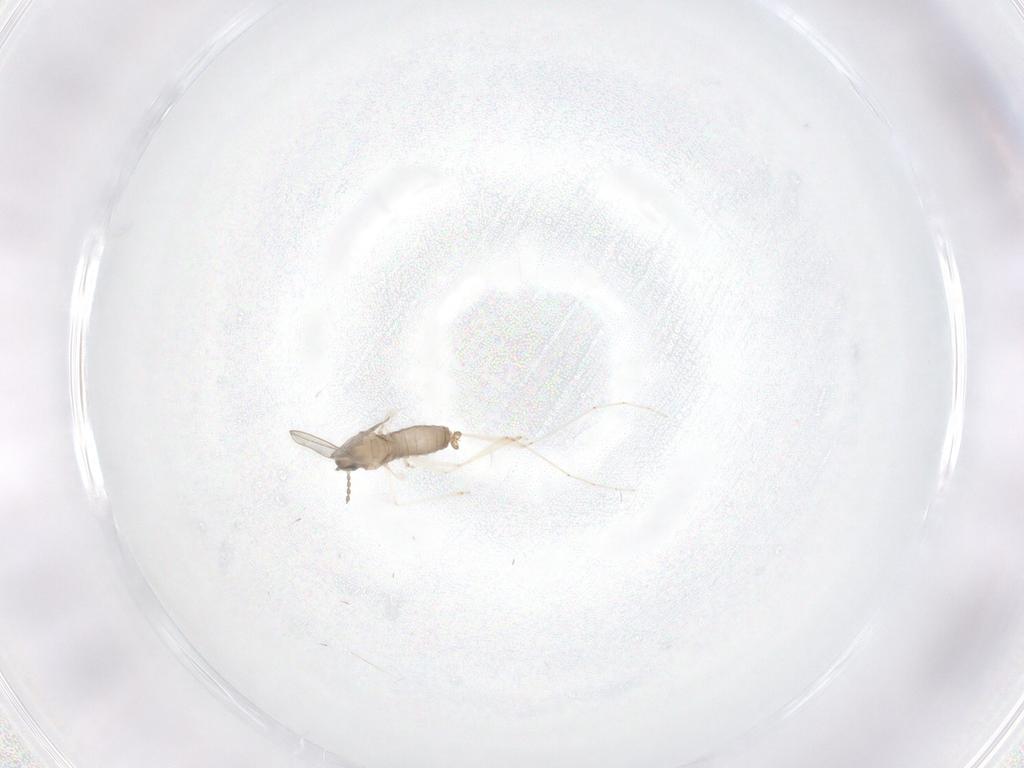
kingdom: Animalia
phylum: Arthropoda
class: Insecta
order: Diptera
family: Cecidomyiidae
